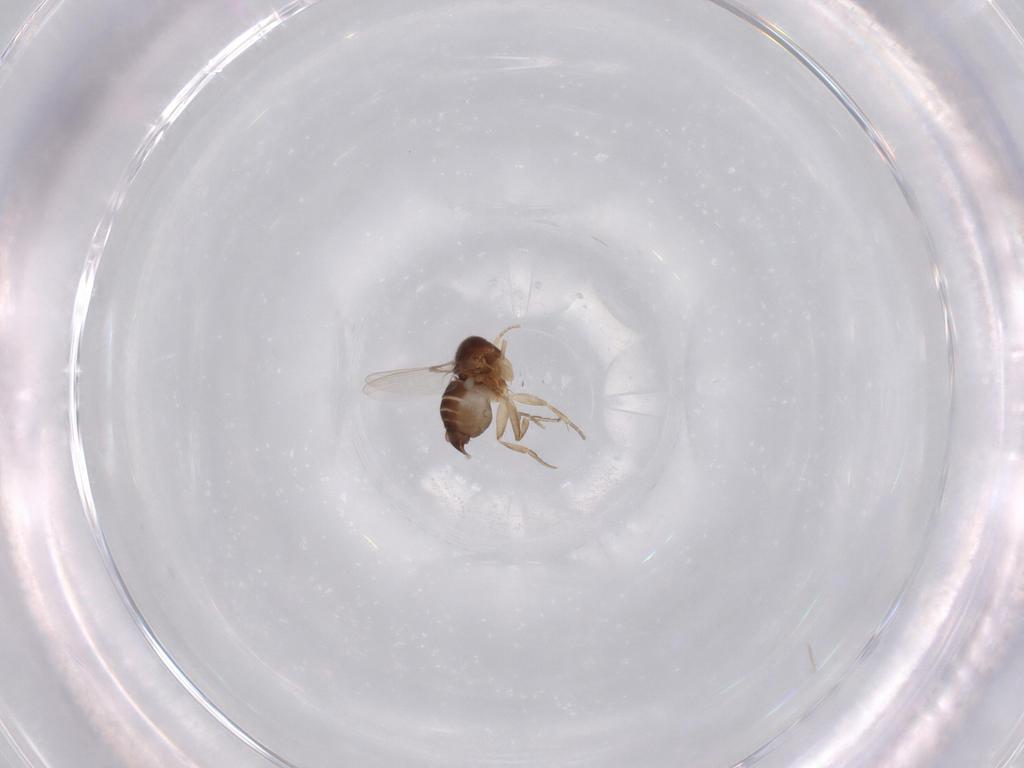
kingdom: Animalia
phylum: Arthropoda
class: Insecta
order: Diptera
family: Phoridae
